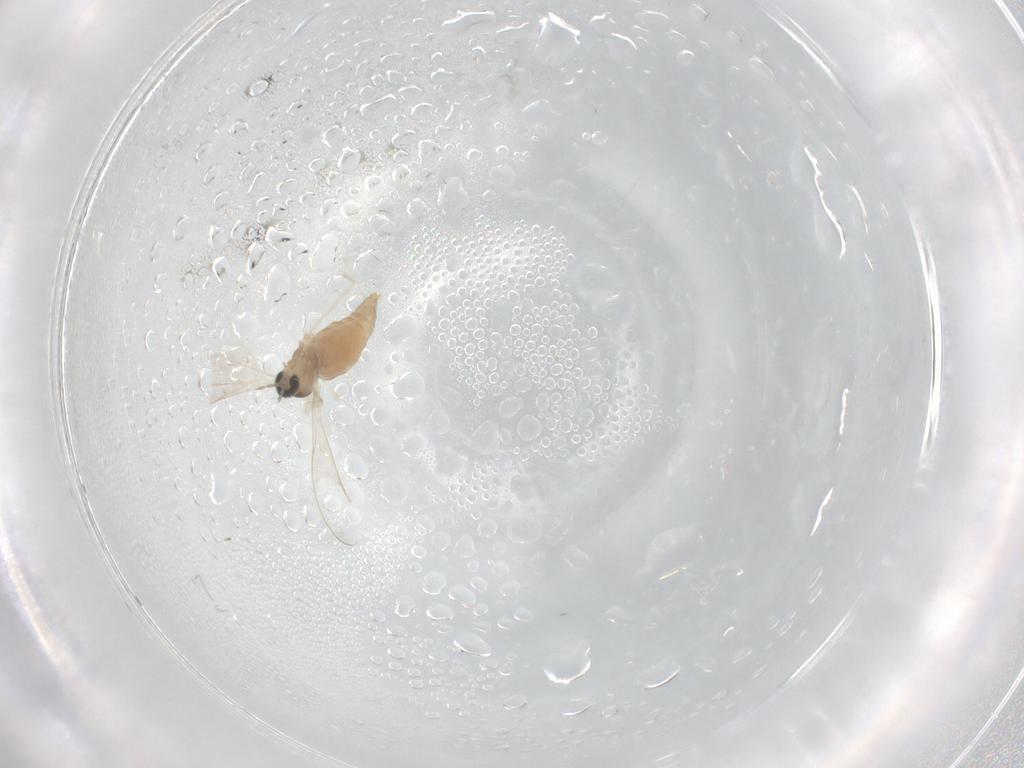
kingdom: Animalia
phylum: Arthropoda
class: Insecta
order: Diptera
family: Cecidomyiidae
